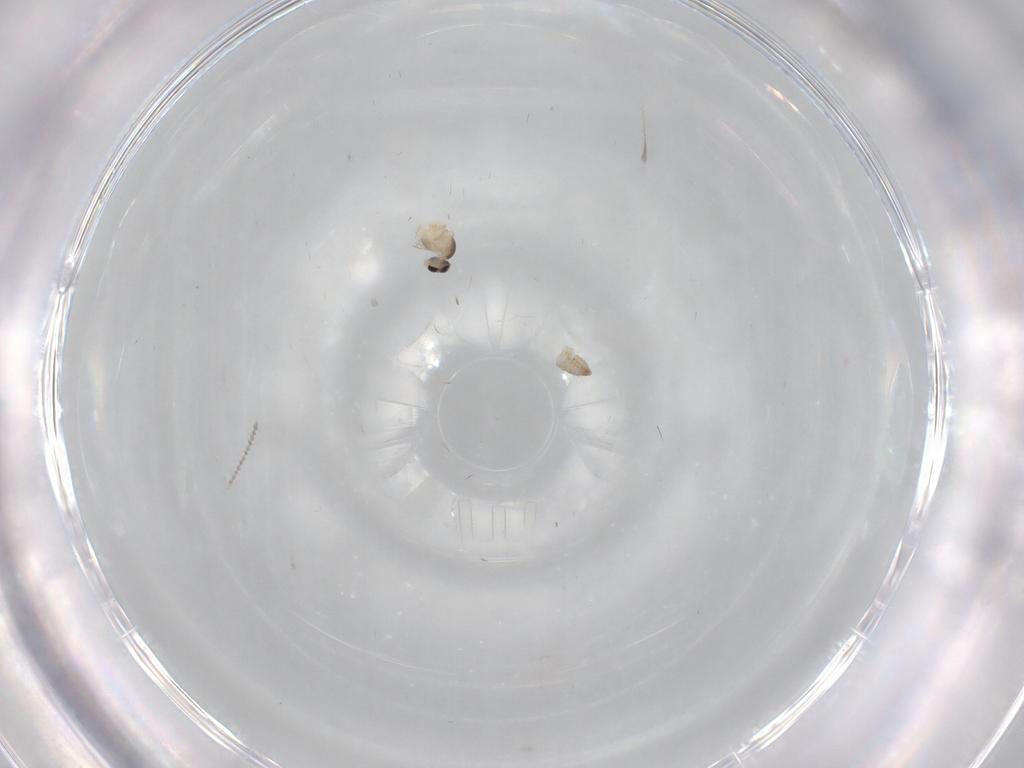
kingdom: Animalia
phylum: Arthropoda
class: Insecta
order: Diptera
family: Cecidomyiidae
